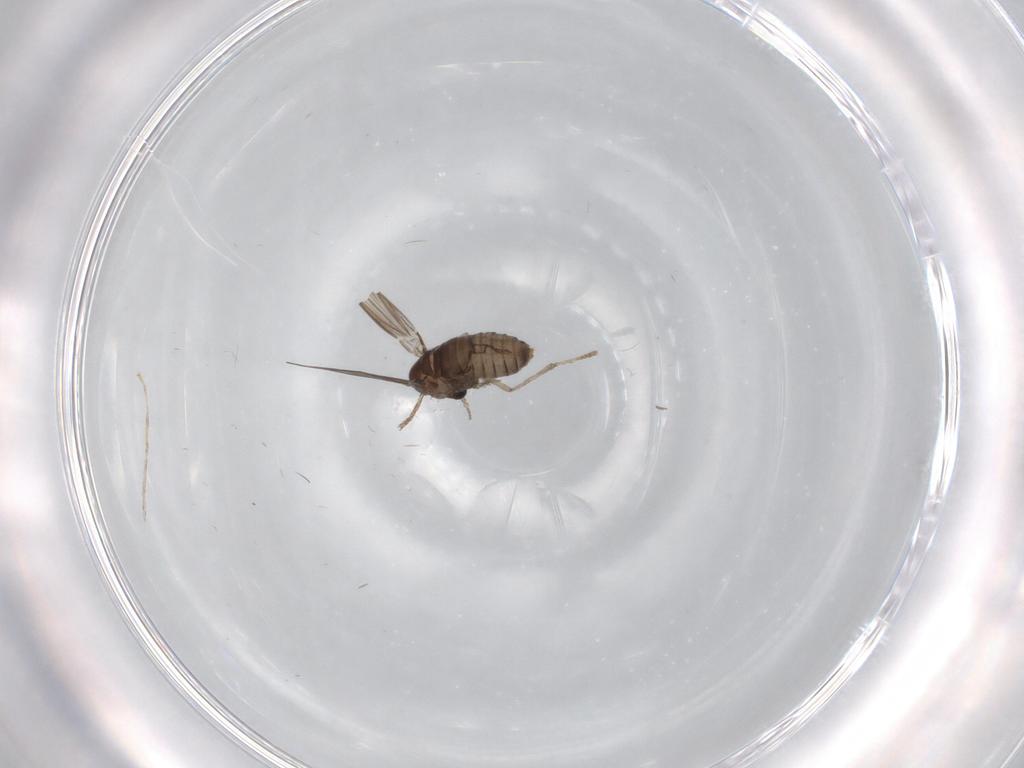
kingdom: Animalia
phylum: Arthropoda
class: Insecta
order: Diptera
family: Psychodidae
